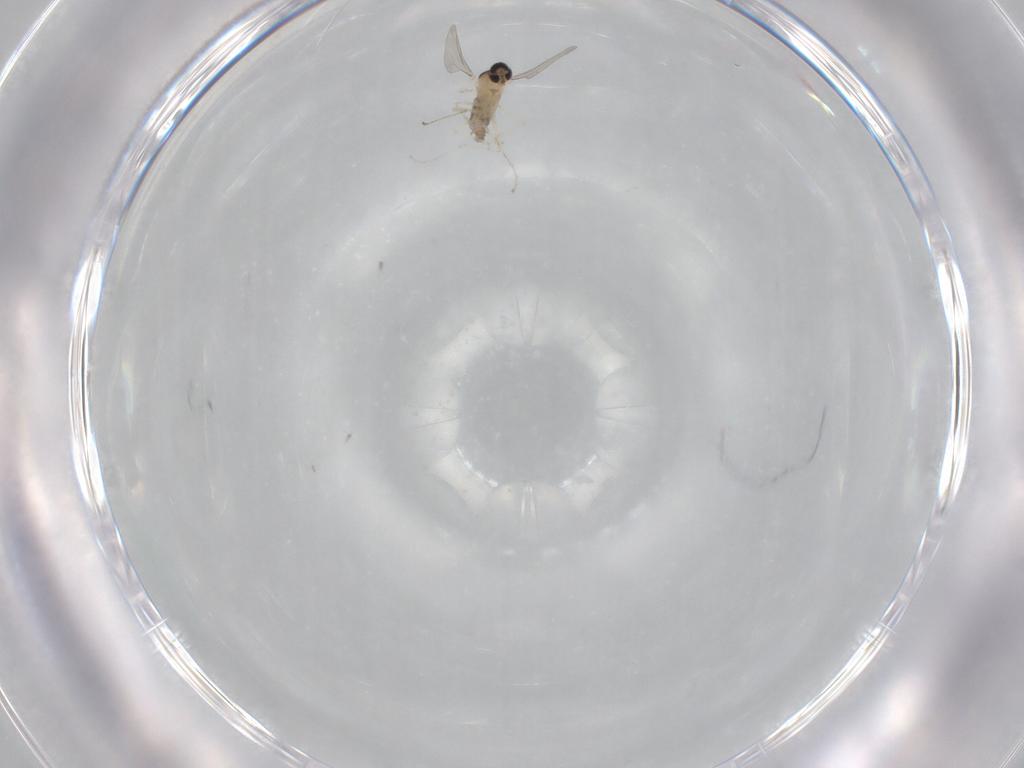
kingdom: Animalia
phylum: Arthropoda
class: Insecta
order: Diptera
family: Cecidomyiidae
